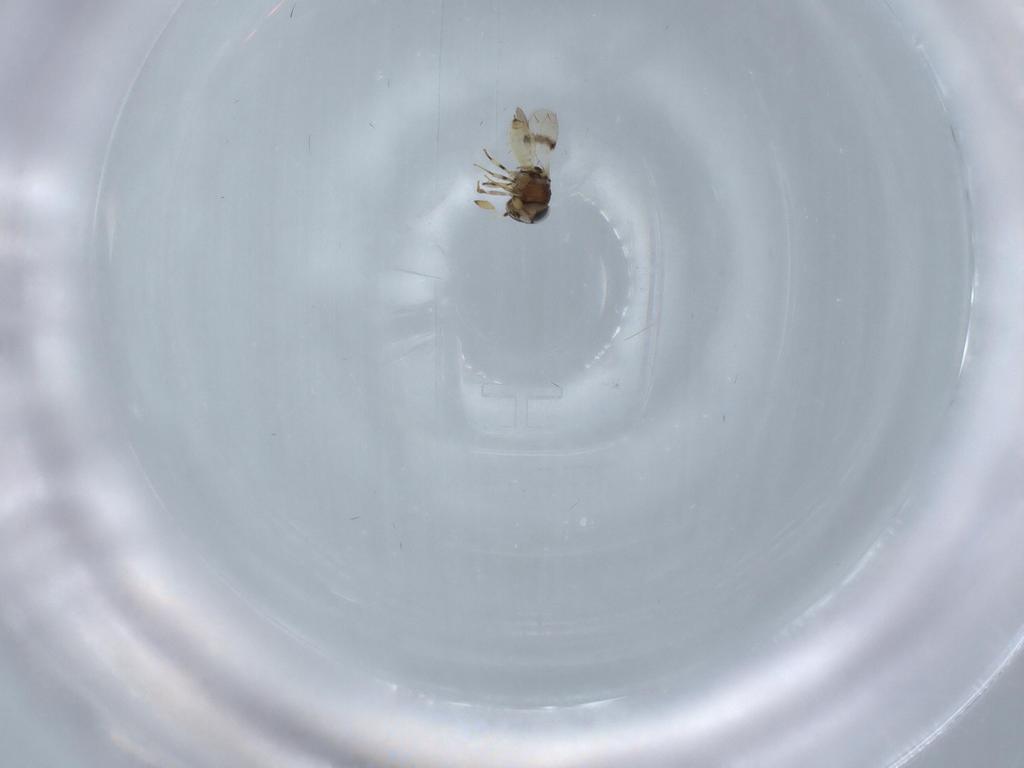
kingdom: Animalia
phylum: Arthropoda
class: Insecta
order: Hymenoptera
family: Scelionidae
